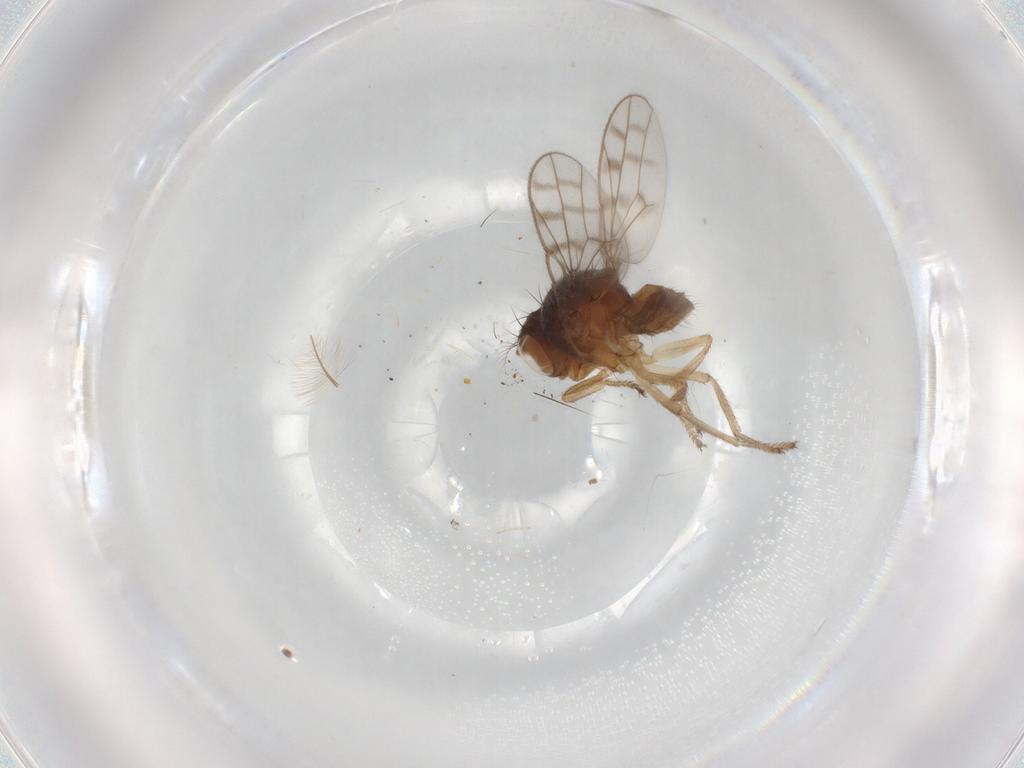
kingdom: Animalia
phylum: Arthropoda
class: Insecta
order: Diptera
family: Ephydridae
